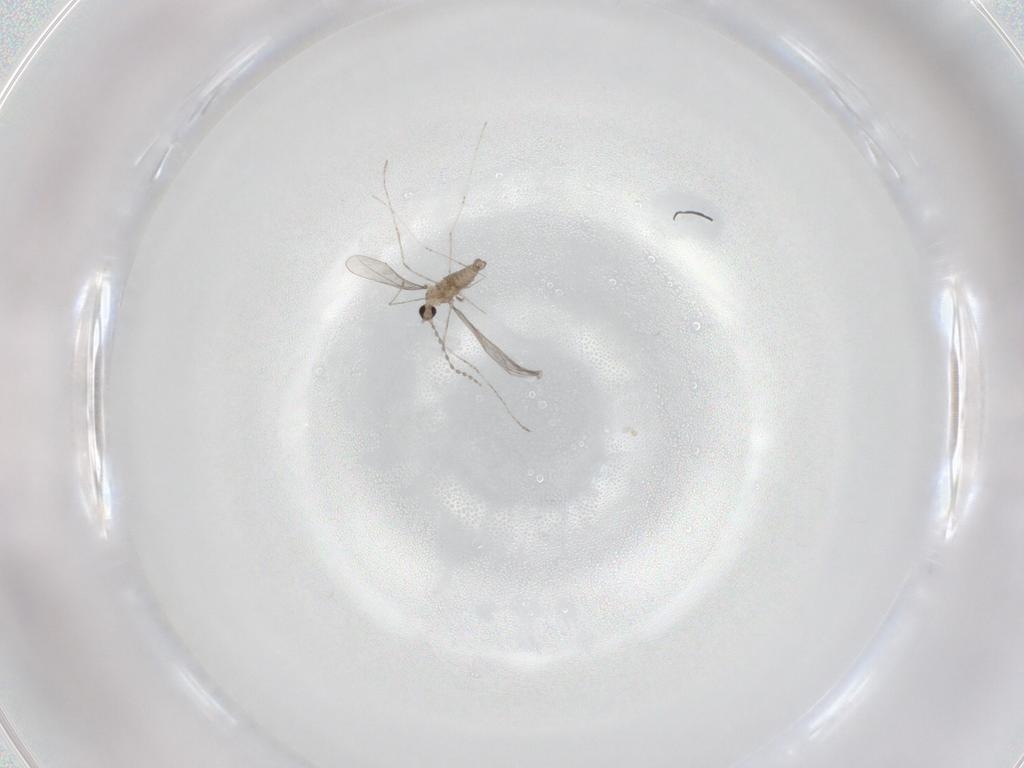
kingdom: Animalia
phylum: Arthropoda
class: Insecta
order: Diptera
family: Cecidomyiidae
